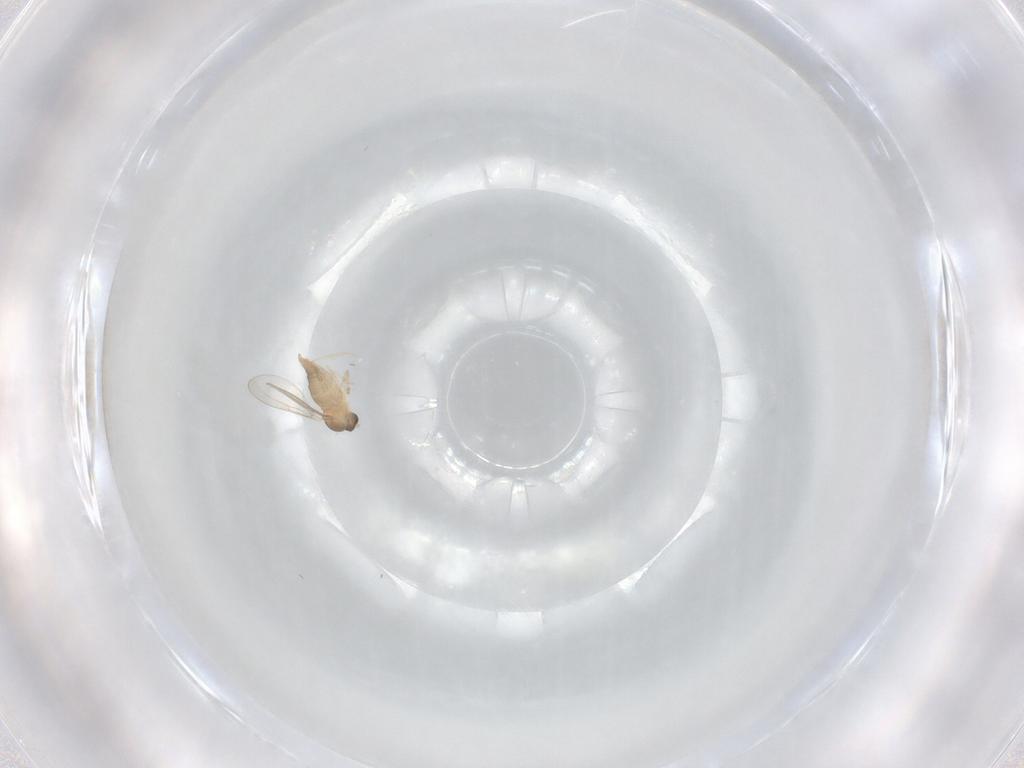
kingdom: Animalia
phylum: Arthropoda
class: Insecta
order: Diptera
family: Cecidomyiidae
